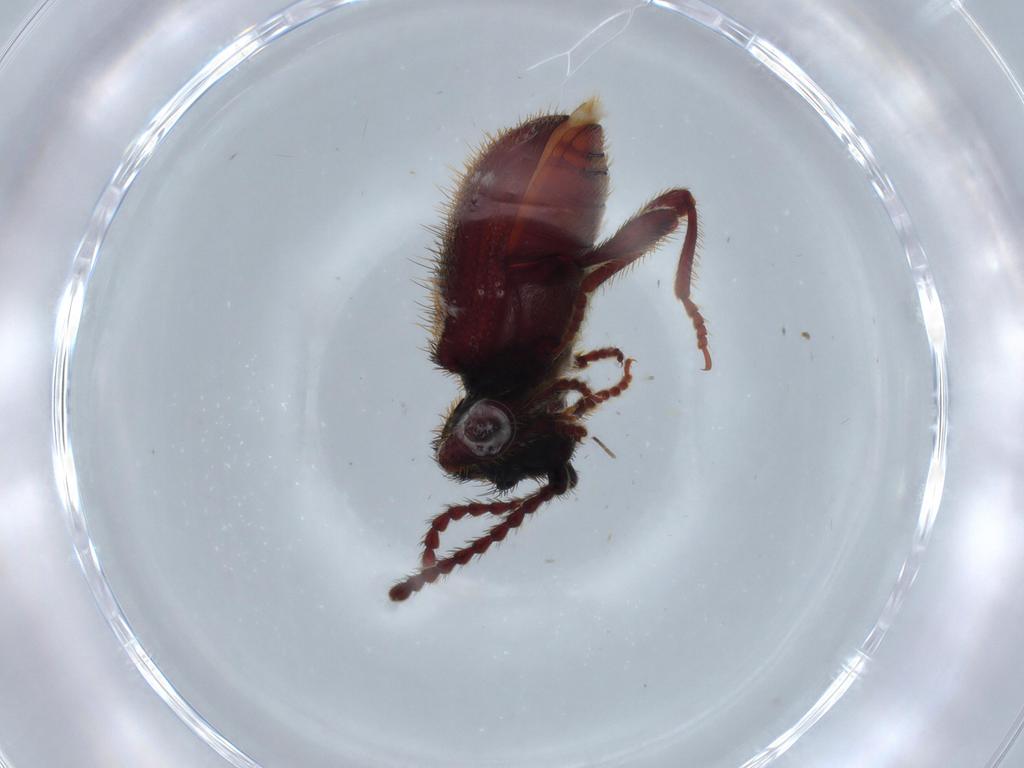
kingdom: Animalia
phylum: Arthropoda
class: Insecta
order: Coleoptera
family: Ptinidae
